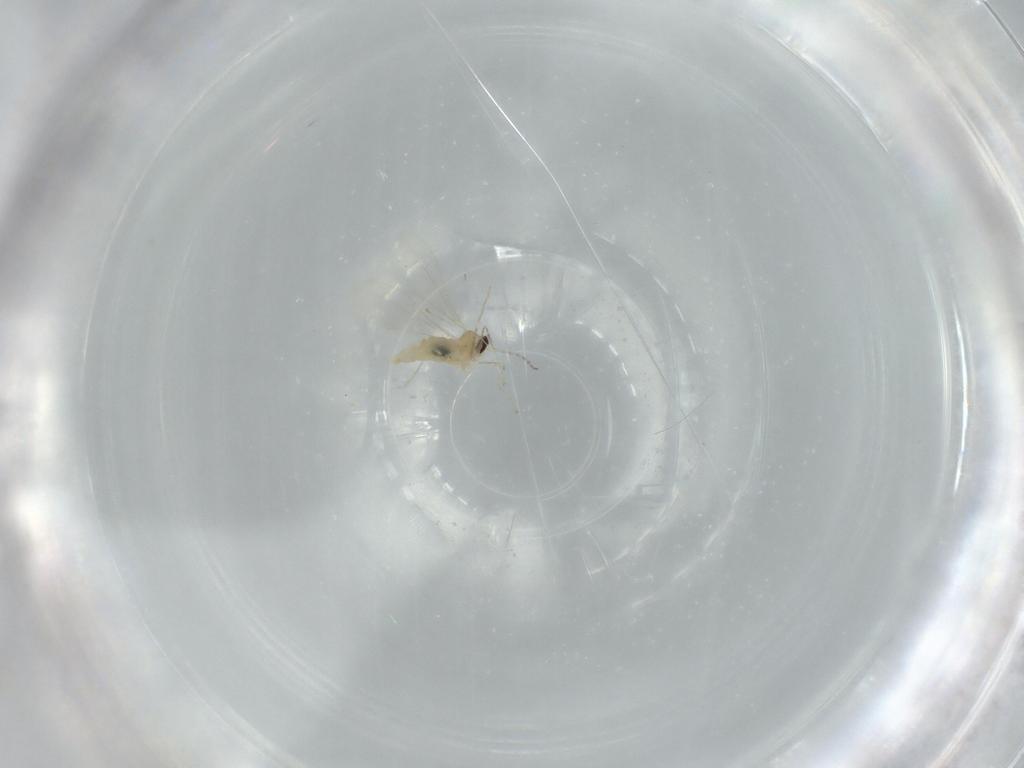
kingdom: Animalia
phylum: Arthropoda
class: Insecta
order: Diptera
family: Cecidomyiidae
